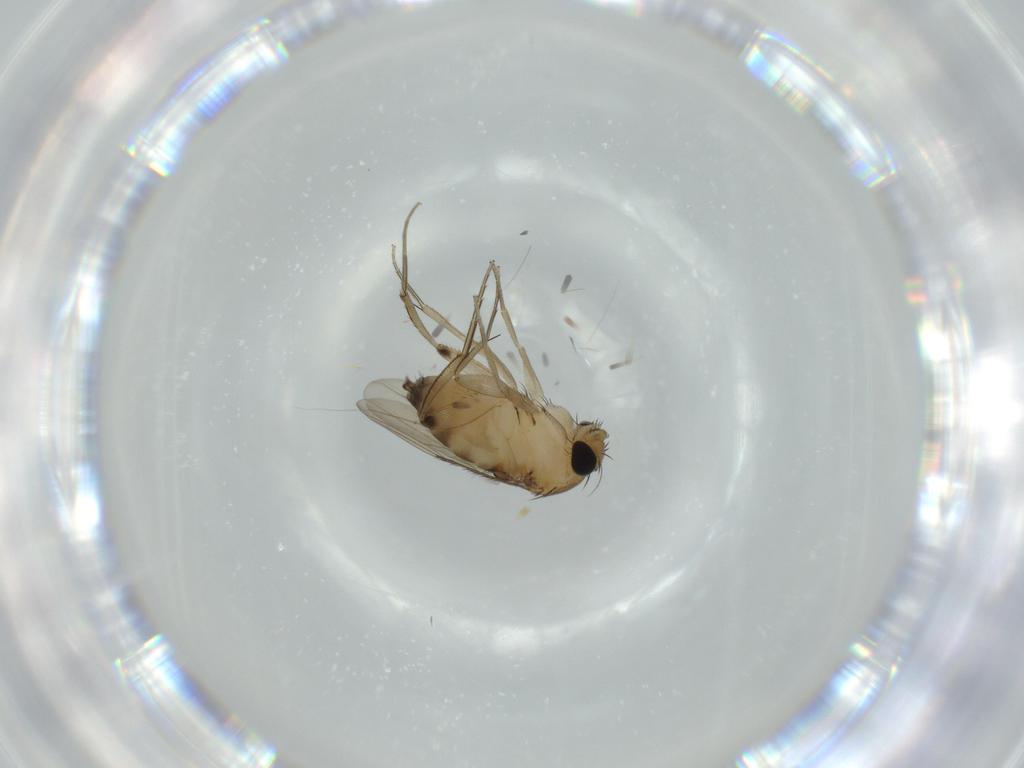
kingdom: Animalia
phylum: Arthropoda
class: Insecta
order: Diptera
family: Phoridae
